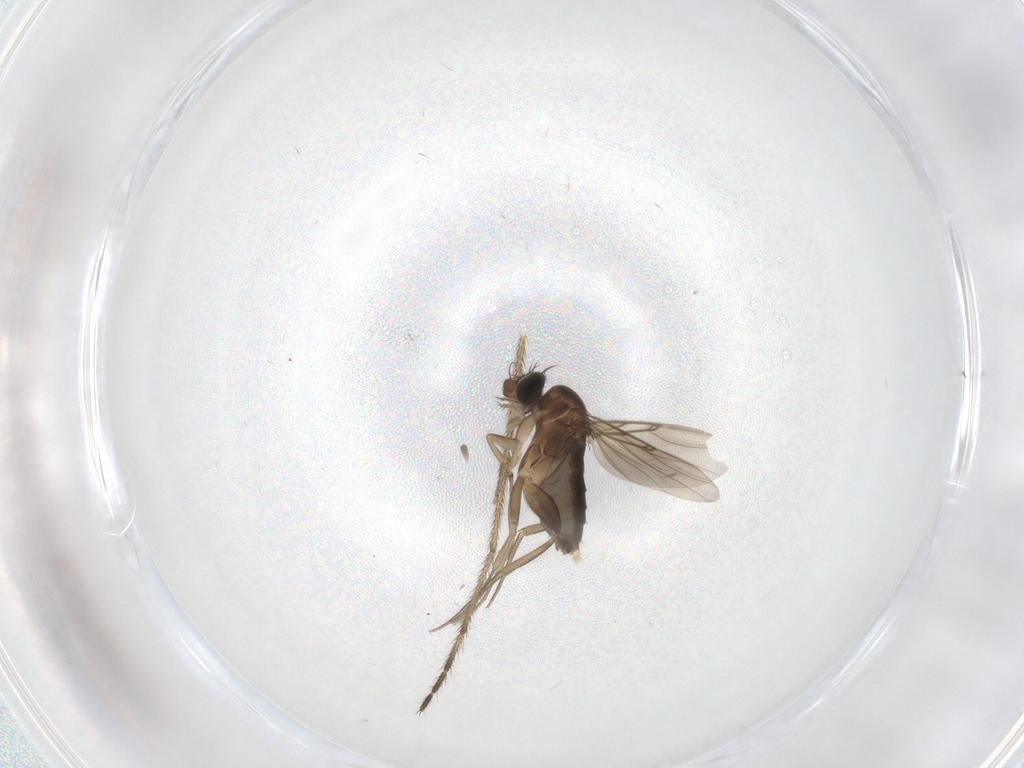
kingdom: Animalia
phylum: Arthropoda
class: Insecta
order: Diptera
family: Limoniidae
